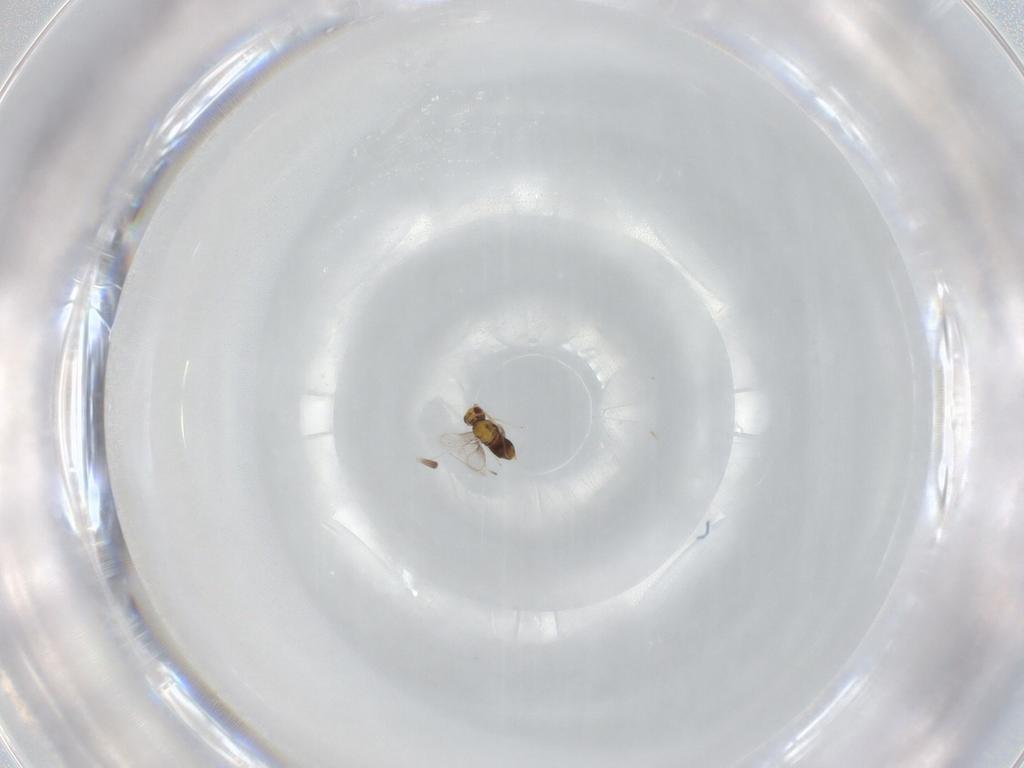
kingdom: Animalia
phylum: Arthropoda
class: Insecta
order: Hymenoptera
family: Aphelinidae
